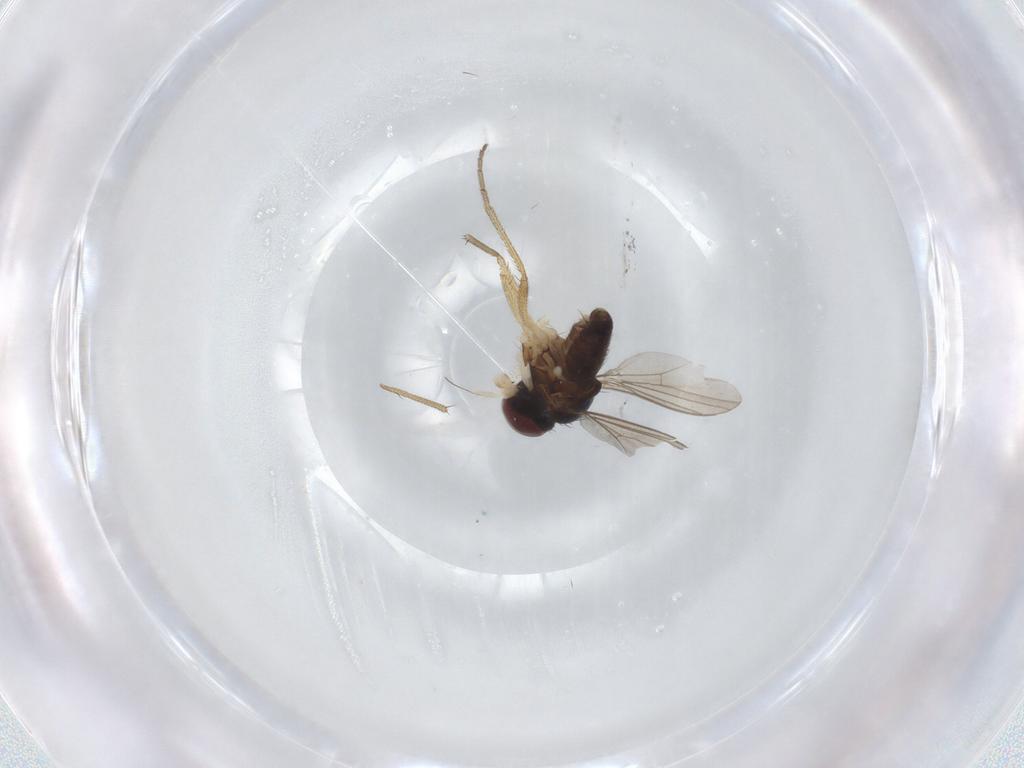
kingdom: Animalia
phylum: Arthropoda
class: Insecta
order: Diptera
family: Dolichopodidae
